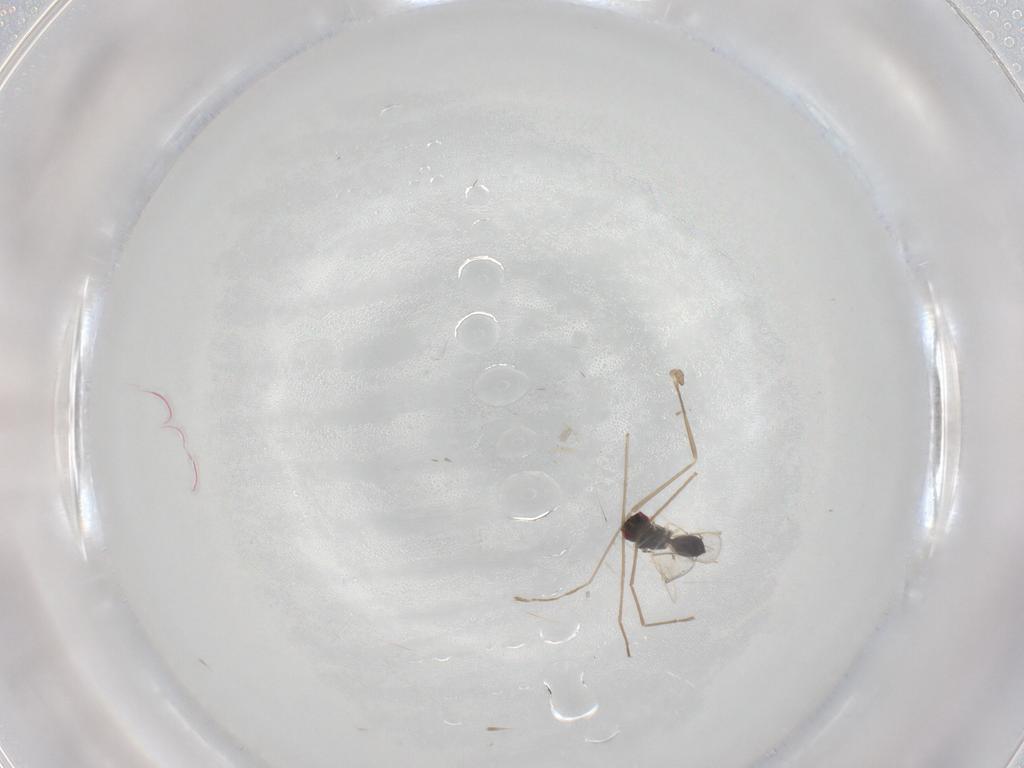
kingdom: Animalia
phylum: Arthropoda
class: Insecta
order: Hymenoptera
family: Eulophidae
